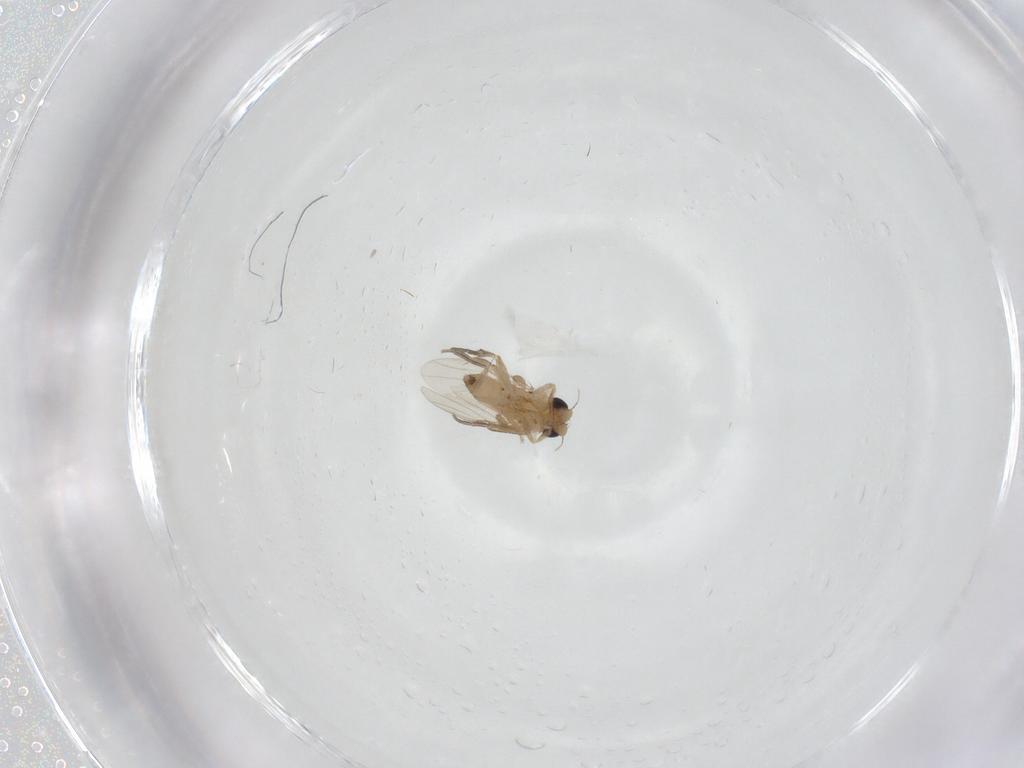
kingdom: Animalia
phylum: Arthropoda
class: Insecta
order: Diptera
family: Phoridae
